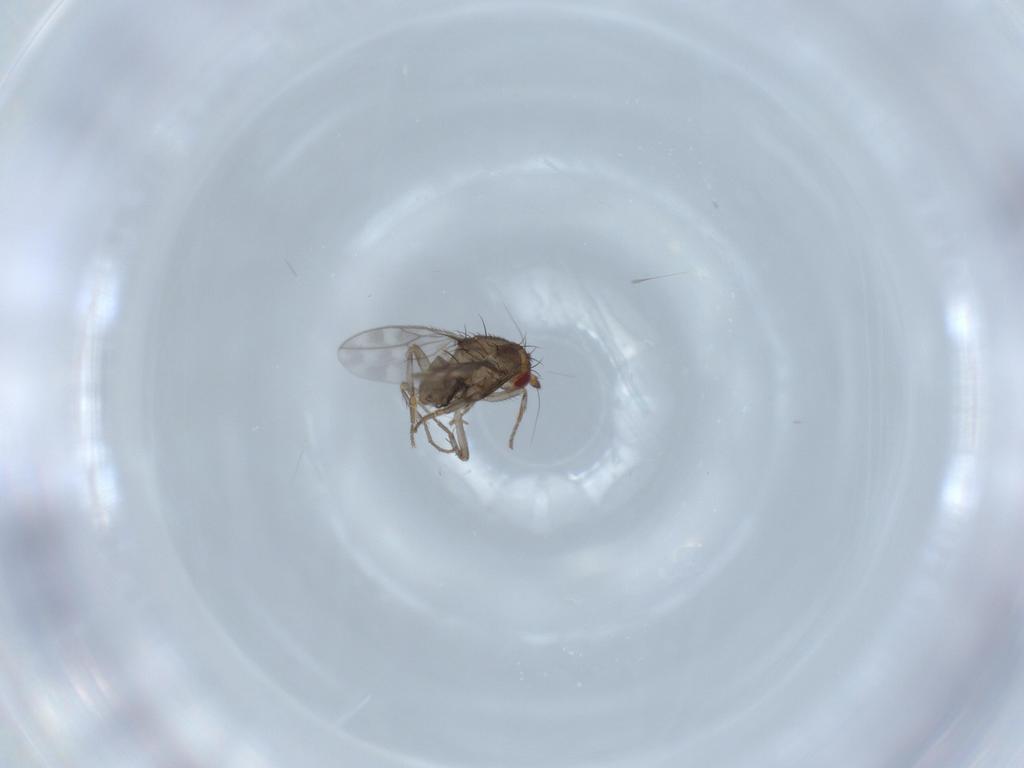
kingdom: Animalia
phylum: Arthropoda
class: Insecta
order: Diptera
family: Sphaeroceridae
